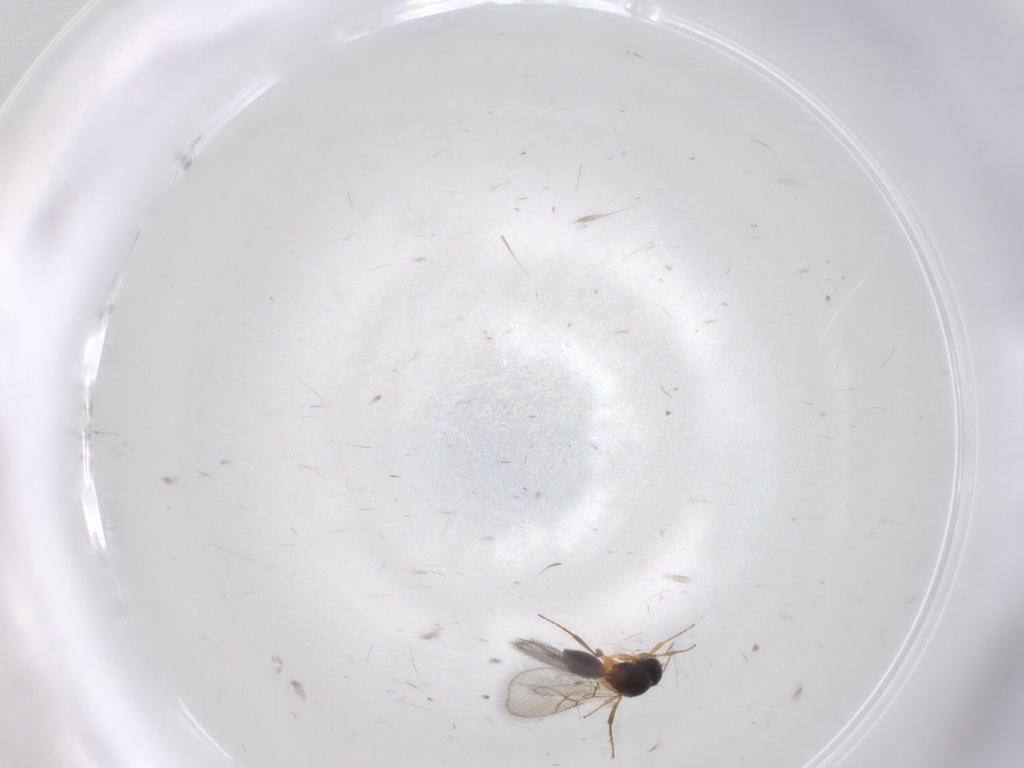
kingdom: Animalia
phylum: Arthropoda
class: Insecta
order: Hymenoptera
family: Figitidae
